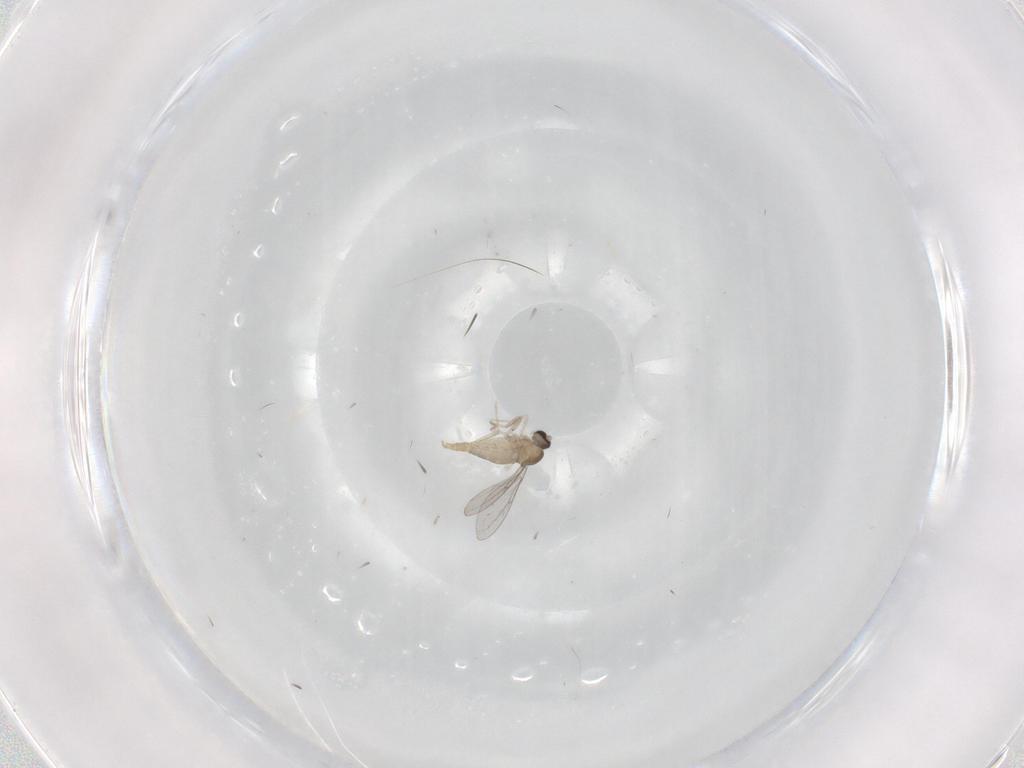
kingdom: Animalia
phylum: Arthropoda
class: Insecta
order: Diptera
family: Cecidomyiidae
